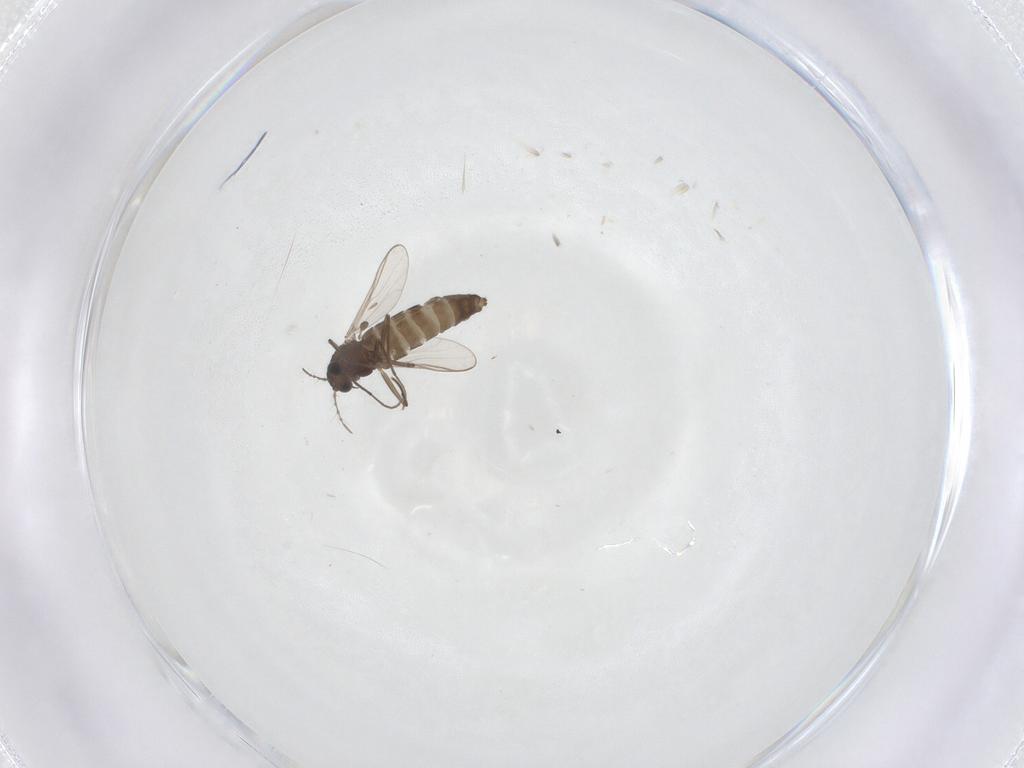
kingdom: Animalia
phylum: Arthropoda
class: Insecta
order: Diptera
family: Chironomidae
